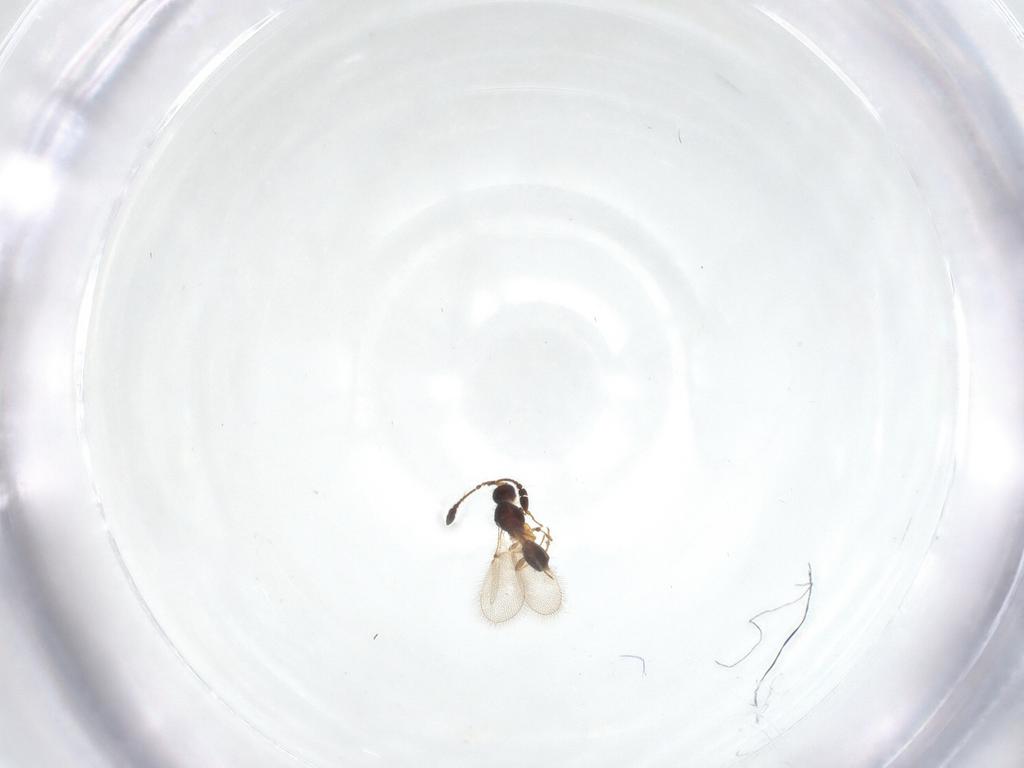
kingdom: Animalia
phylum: Arthropoda
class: Insecta
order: Hymenoptera
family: Diapriidae
